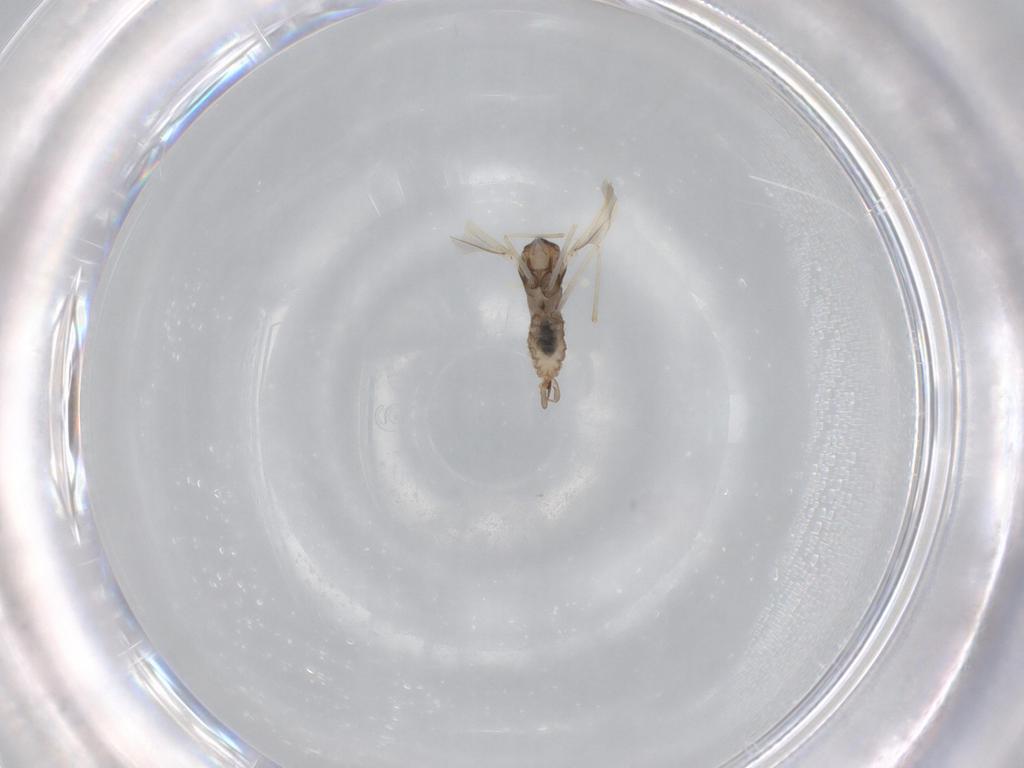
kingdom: Animalia
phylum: Arthropoda
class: Insecta
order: Diptera
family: Cecidomyiidae
